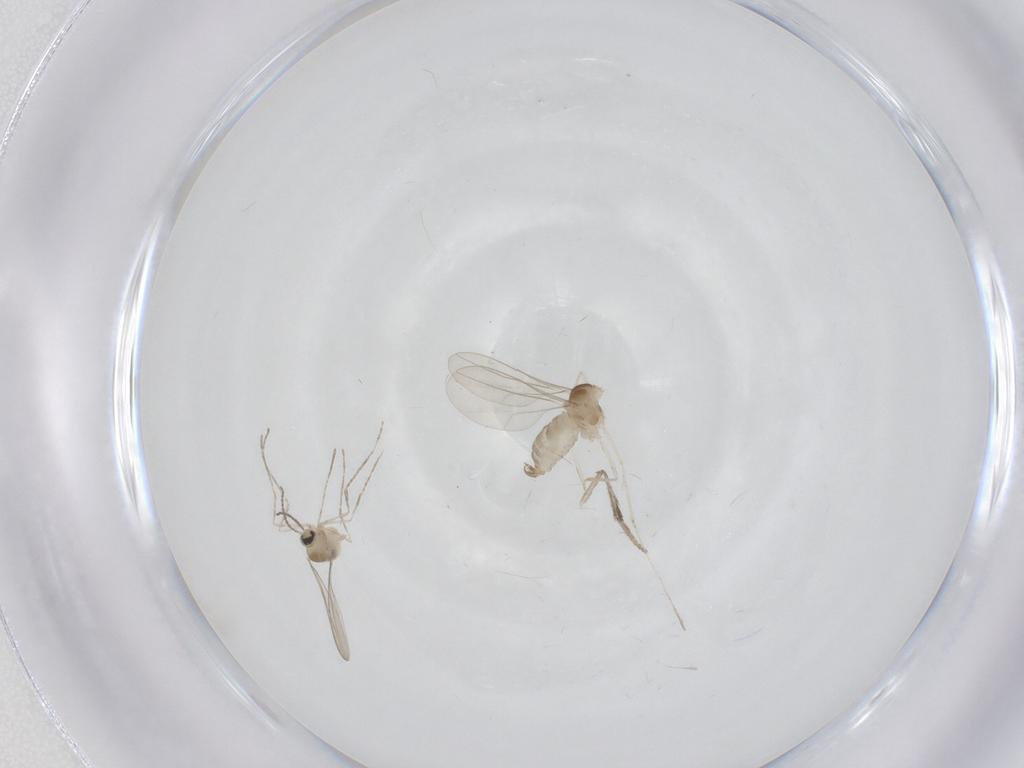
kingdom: Animalia
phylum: Arthropoda
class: Insecta
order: Diptera
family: Cecidomyiidae
